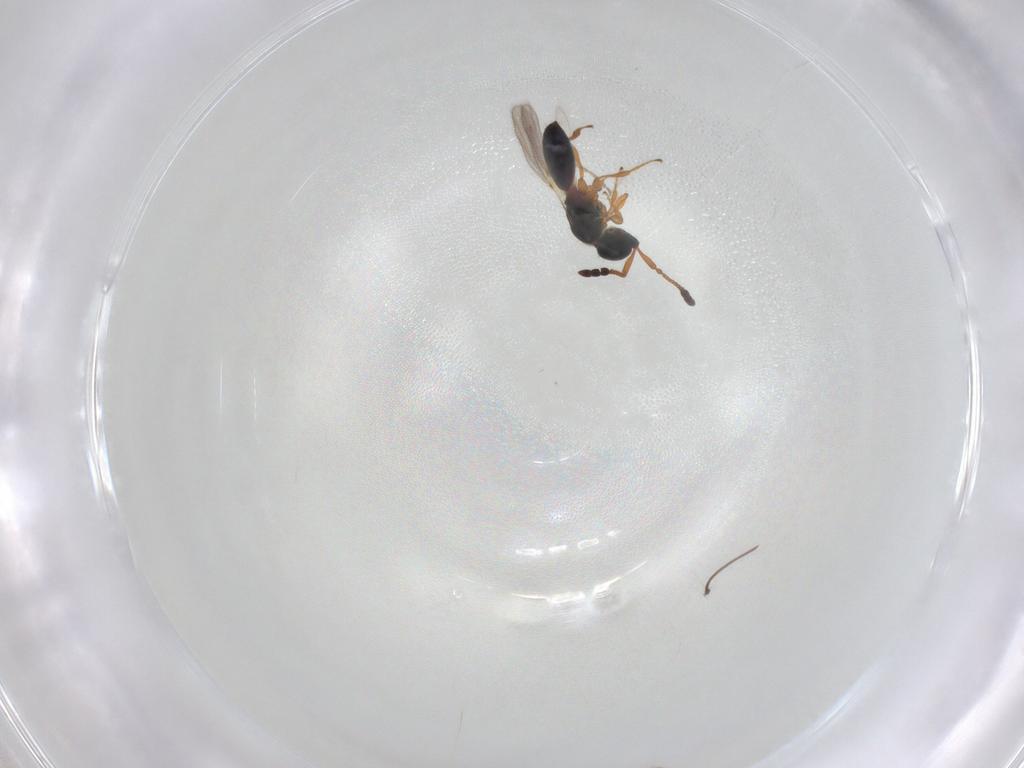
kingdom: Animalia
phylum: Arthropoda
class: Insecta
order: Hymenoptera
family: Diapriidae
